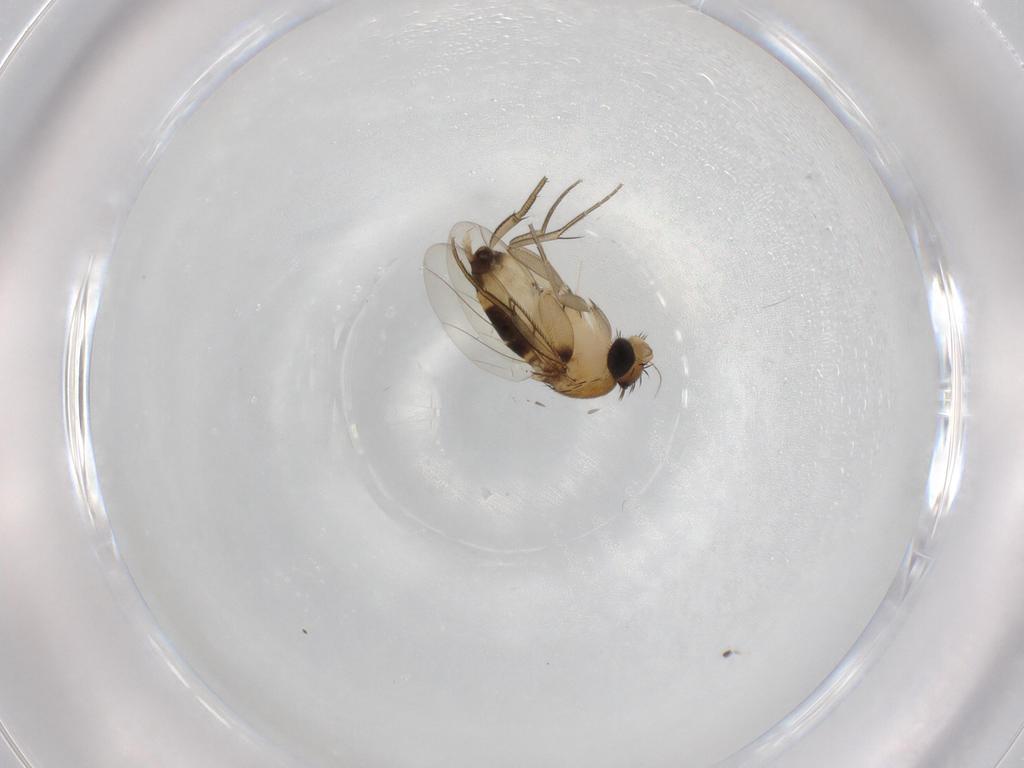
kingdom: Animalia
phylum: Arthropoda
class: Insecta
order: Diptera
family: Phoridae
